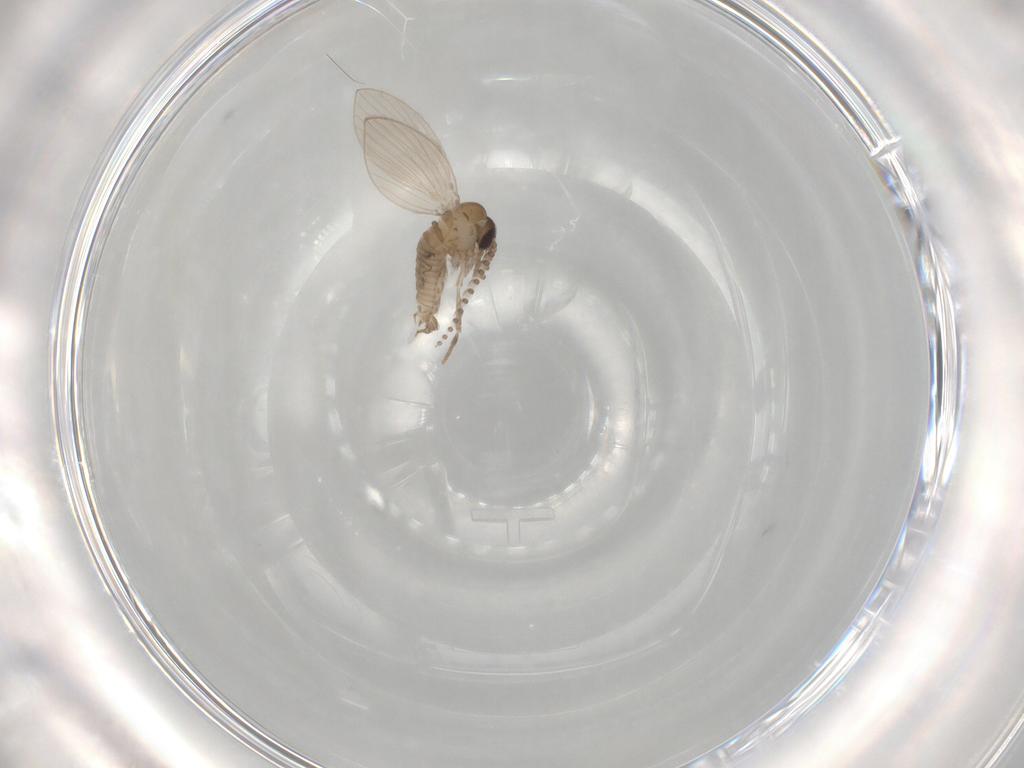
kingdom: Animalia
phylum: Arthropoda
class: Insecta
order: Diptera
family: Psychodidae
